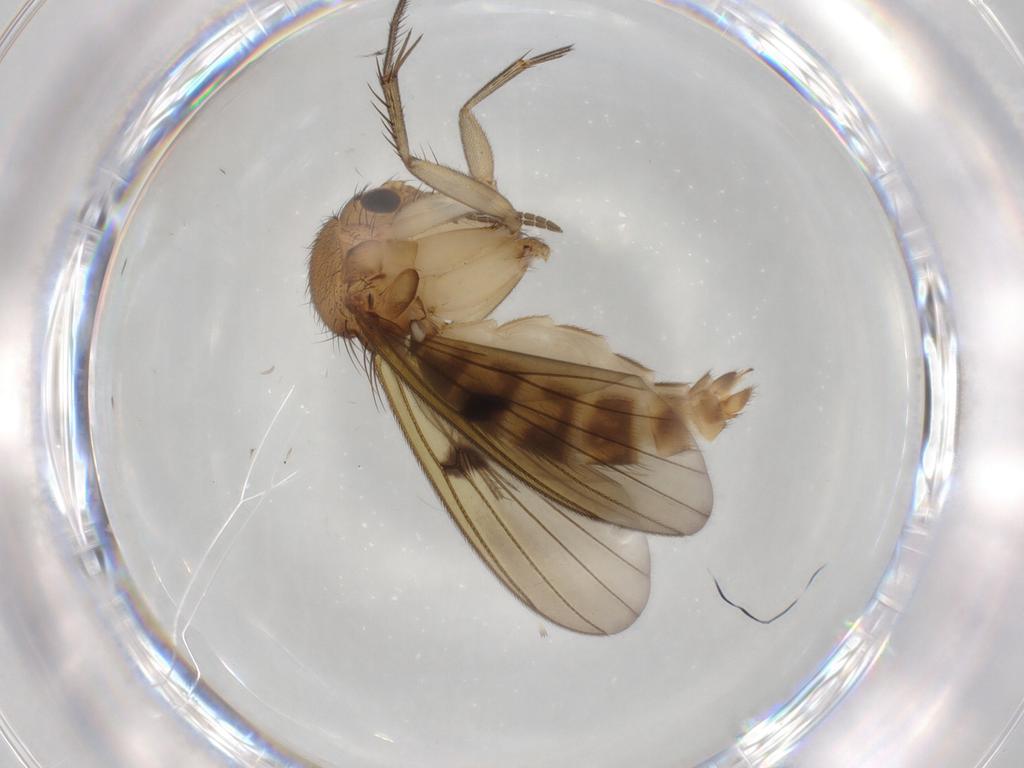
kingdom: Animalia
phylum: Arthropoda
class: Insecta
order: Diptera
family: Mycetophilidae
